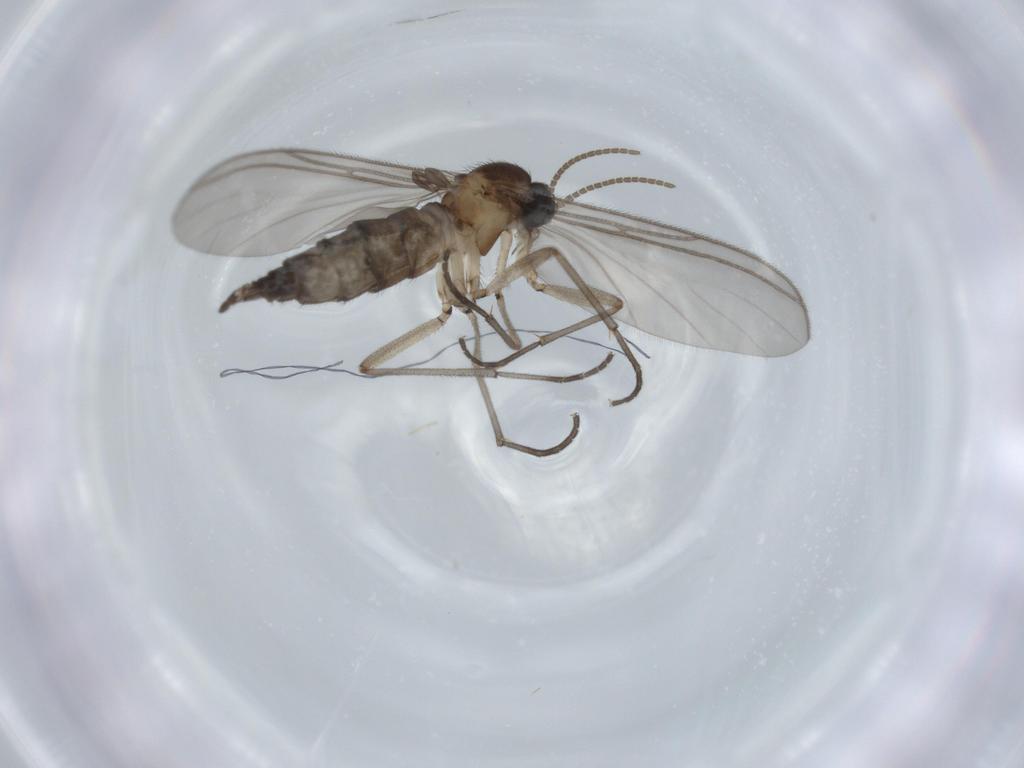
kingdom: Animalia
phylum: Arthropoda
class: Insecta
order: Diptera
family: Sciaridae
